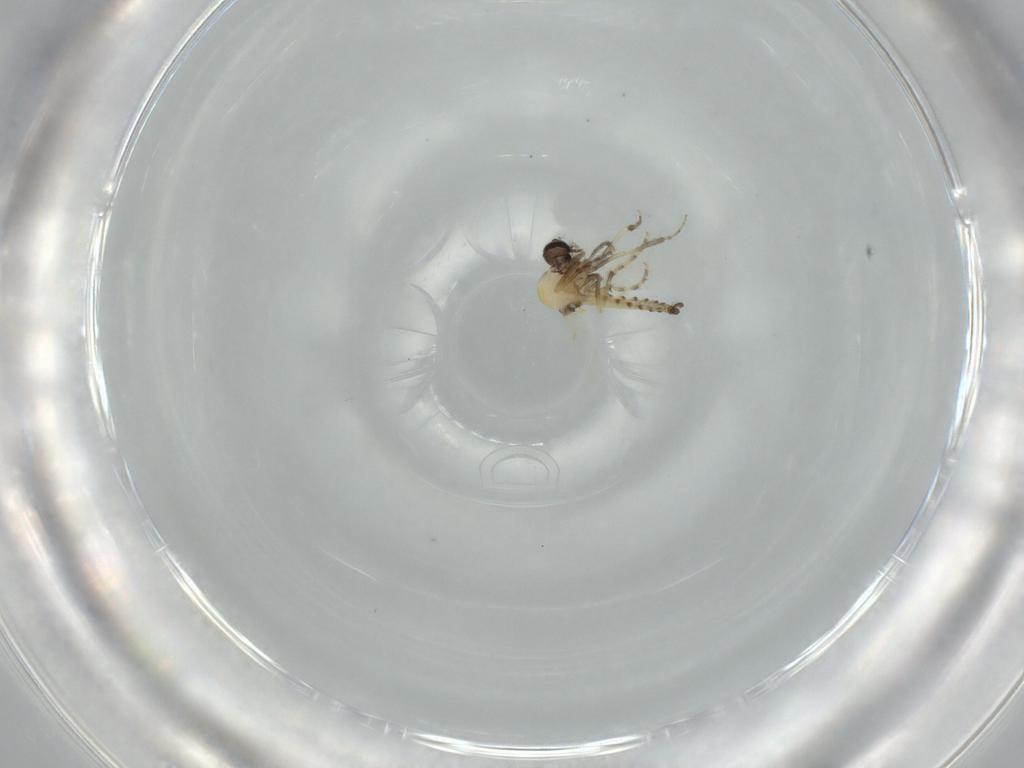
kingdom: Animalia
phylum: Arthropoda
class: Insecta
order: Diptera
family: Ceratopogonidae
